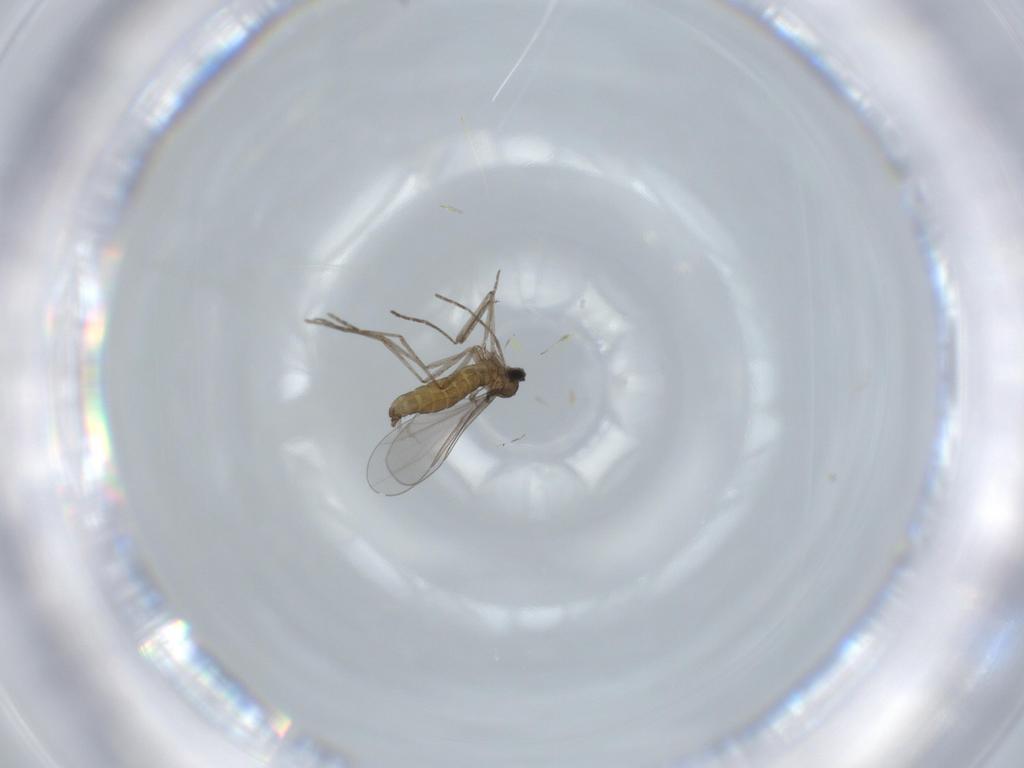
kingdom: Animalia
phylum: Arthropoda
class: Insecta
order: Diptera
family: Cecidomyiidae
